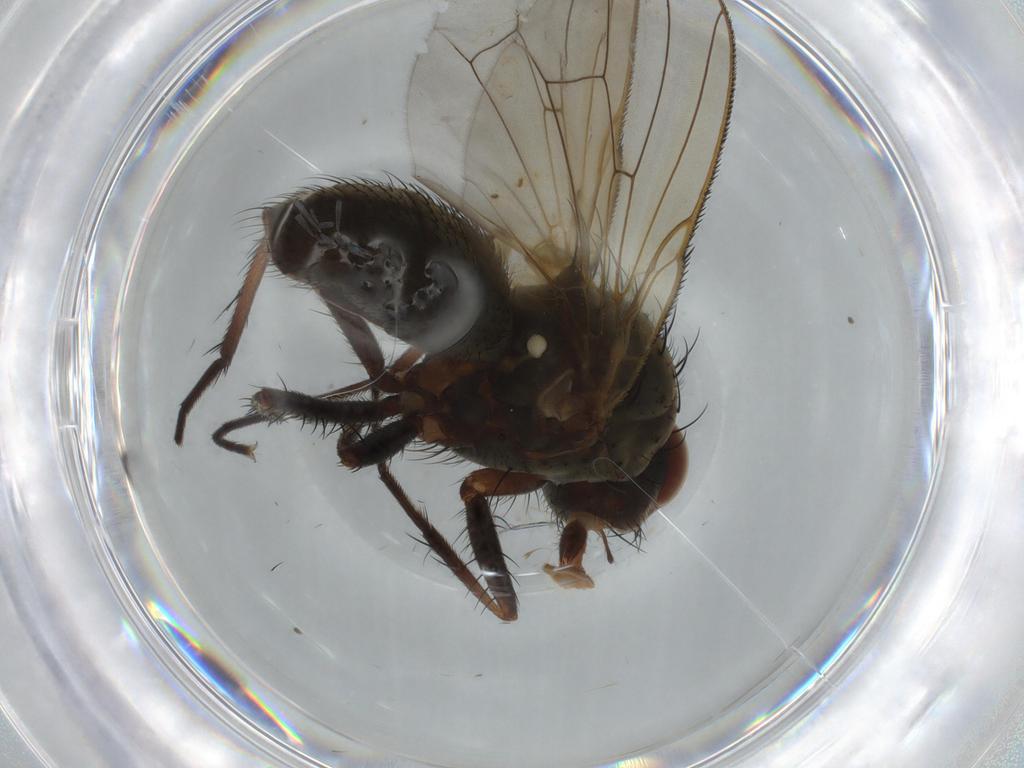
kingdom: Animalia
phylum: Arthropoda
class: Insecta
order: Diptera
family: Anthomyiidae
